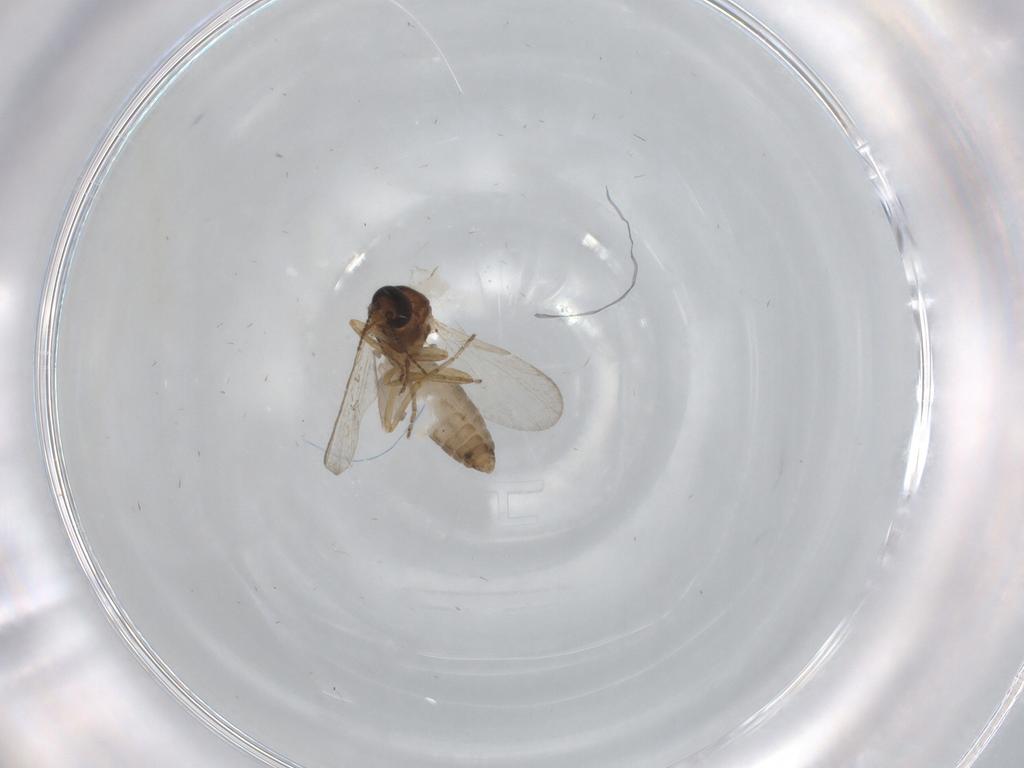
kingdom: Animalia
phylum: Arthropoda
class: Insecta
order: Diptera
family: Ceratopogonidae
